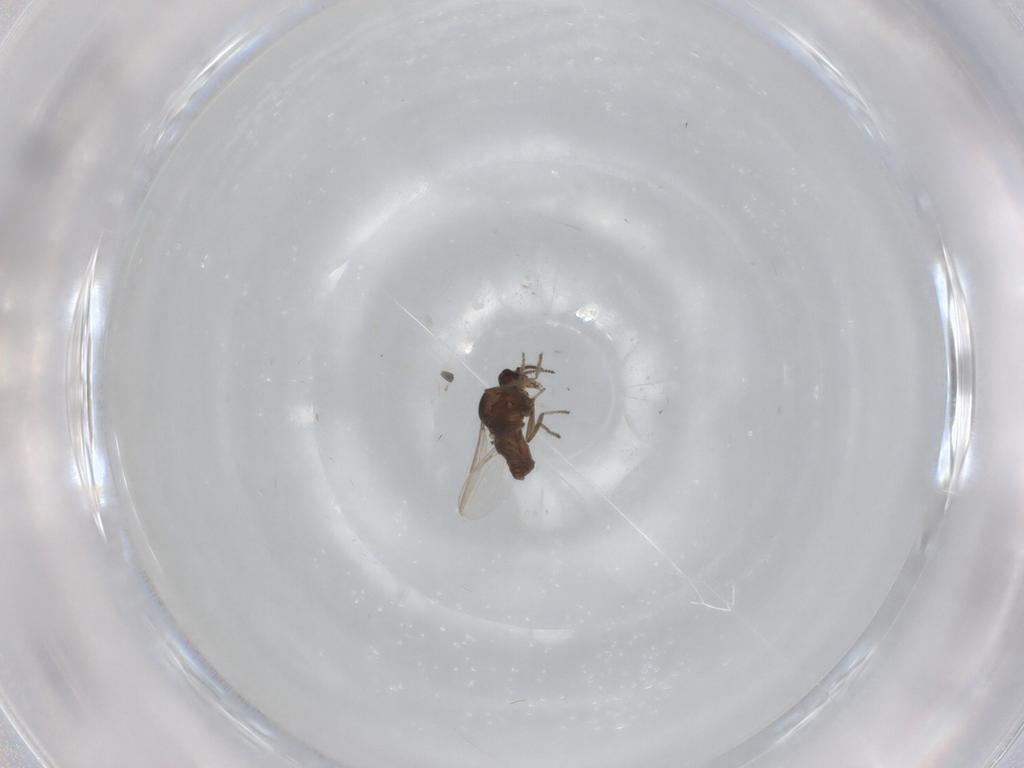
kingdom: Animalia
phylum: Arthropoda
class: Insecta
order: Diptera
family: Ceratopogonidae
